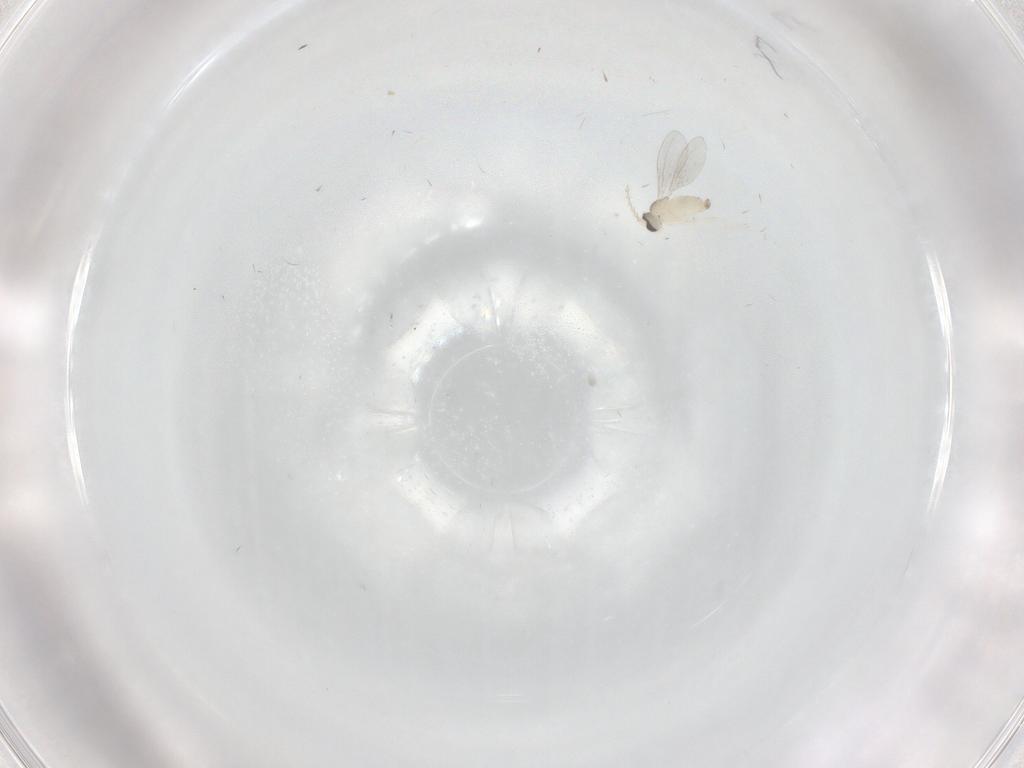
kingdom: Animalia
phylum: Arthropoda
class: Insecta
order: Diptera
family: Cecidomyiidae
